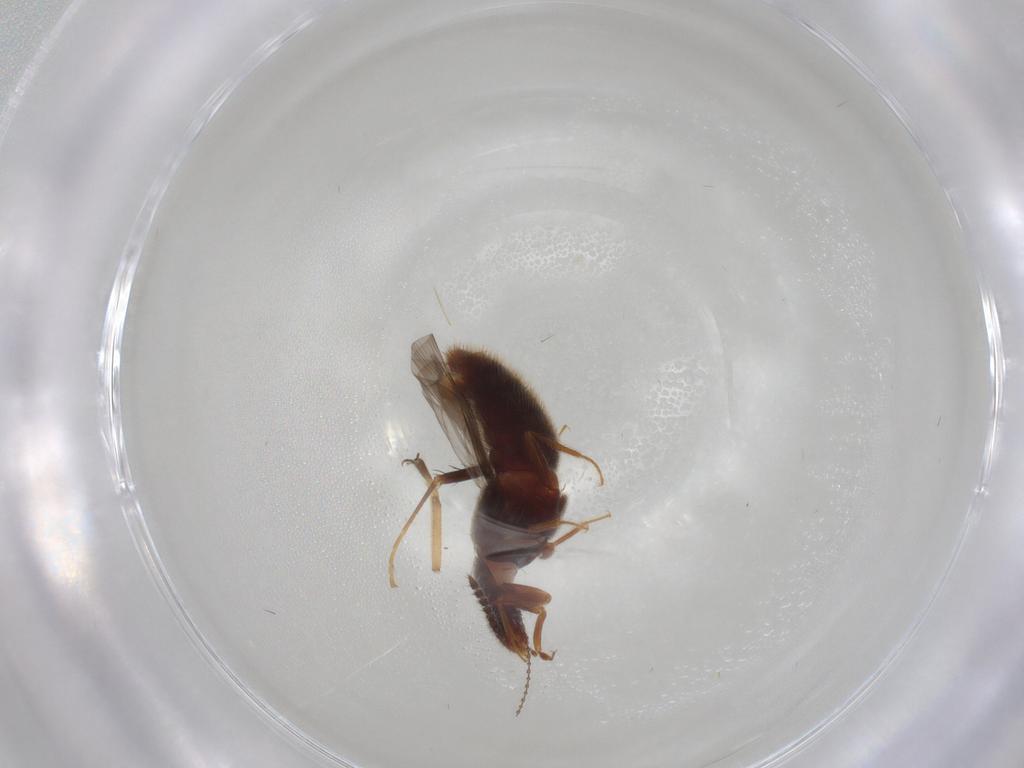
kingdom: Animalia
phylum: Arthropoda
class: Insecta
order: Coleoptera
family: Staphylinidae
